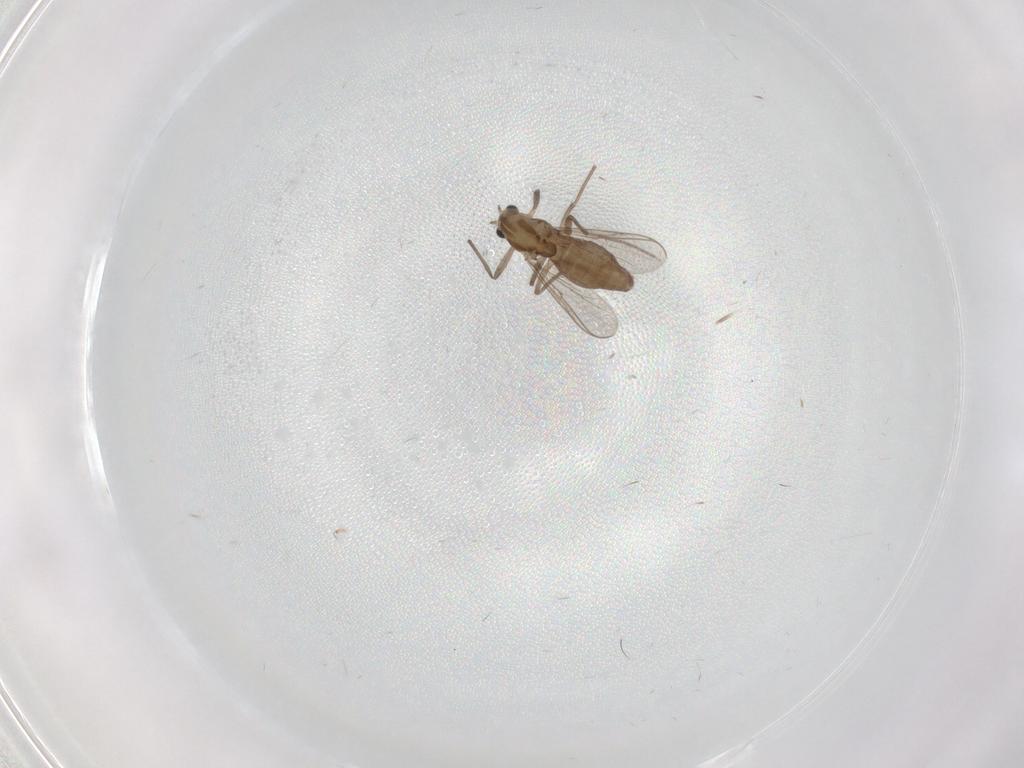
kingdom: Animalia
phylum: Arthropoda
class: Insecta
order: Diptera
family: Chironomidae
